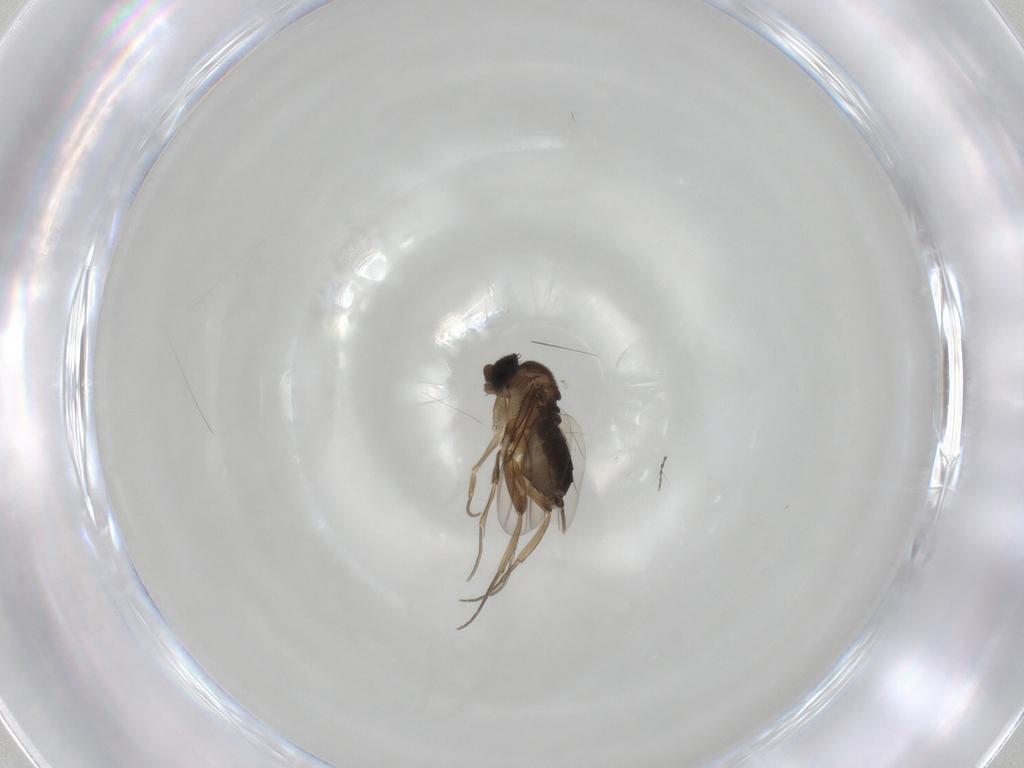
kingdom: Animalia
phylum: Arthropoda
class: Insecta
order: Diptera
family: Phoridae
